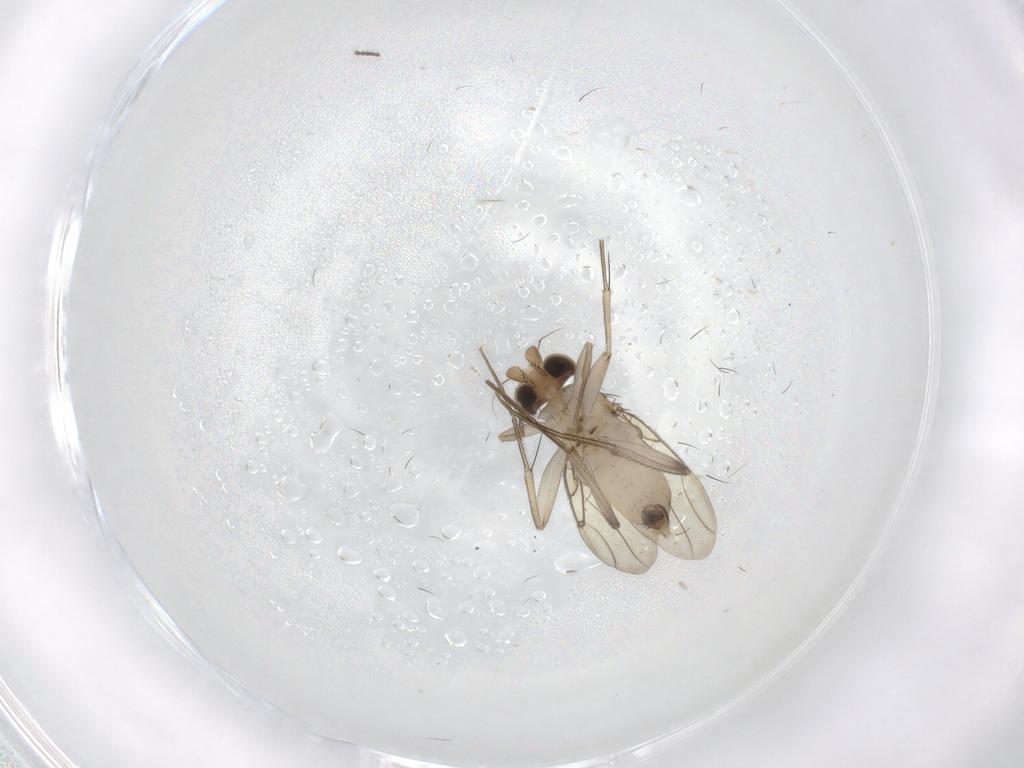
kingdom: Animalia
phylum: Arthropoda
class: Insecta
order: Diptera
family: Cecidomyiidae
